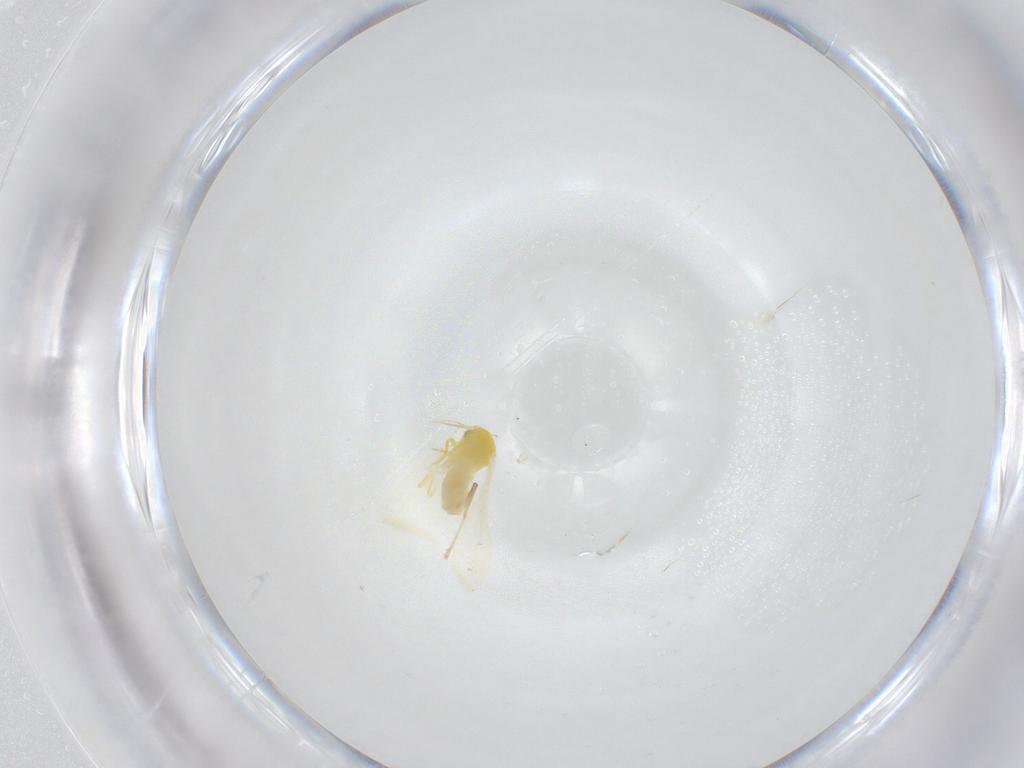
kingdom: Animalia
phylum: Arthropoda
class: Insecta
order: Hemiptera
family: Aleyrodidae
